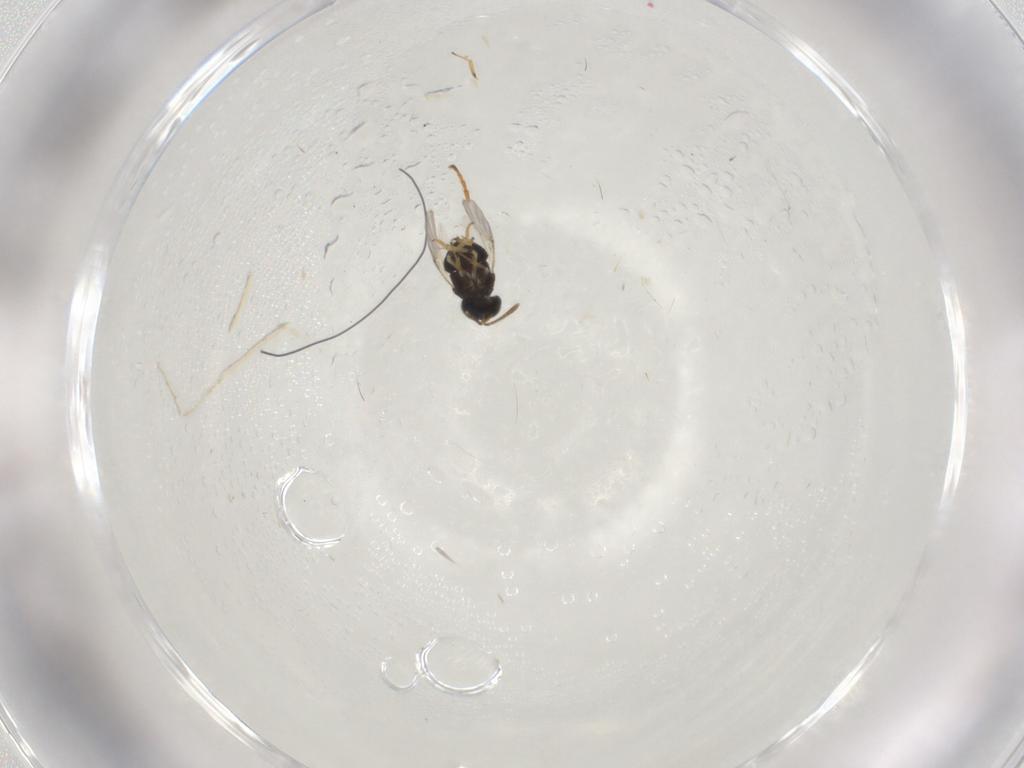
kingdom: Animalia
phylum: Arthropoda
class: Insecta
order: Hymenoptera
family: Encyrtidae
